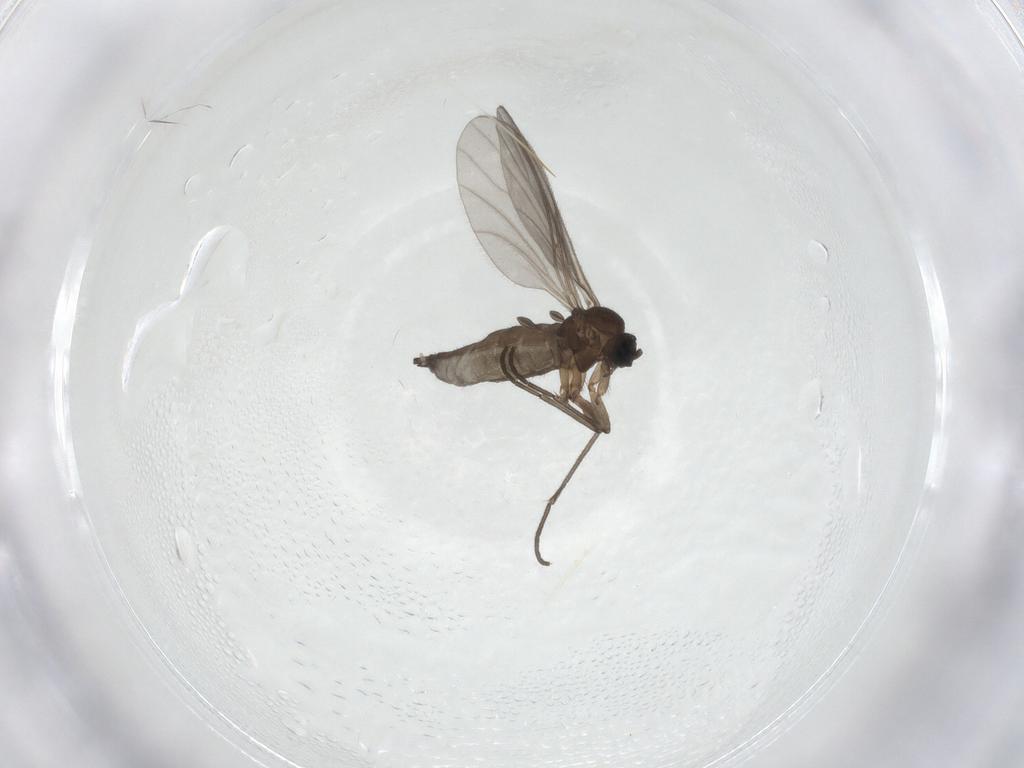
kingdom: Animalia
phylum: Arthropoda
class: Insecta
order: Diptera
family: Sciaridae
